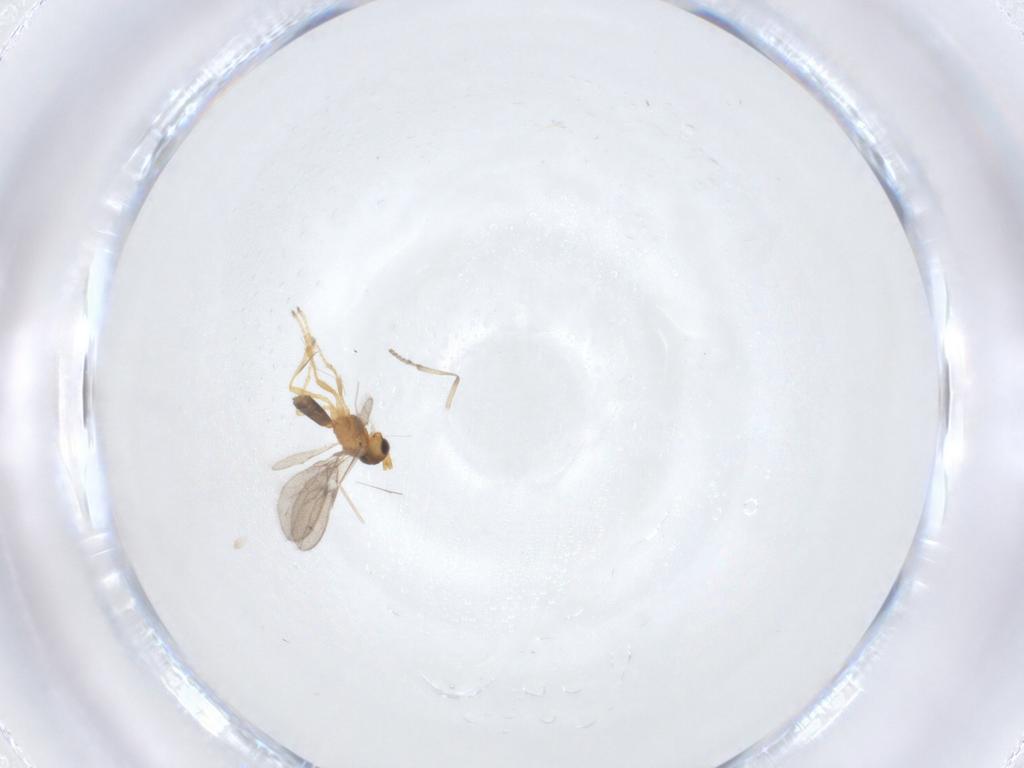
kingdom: Animalia
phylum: Arthropoda
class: Insecta
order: Hymenoptera
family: Braconidae
